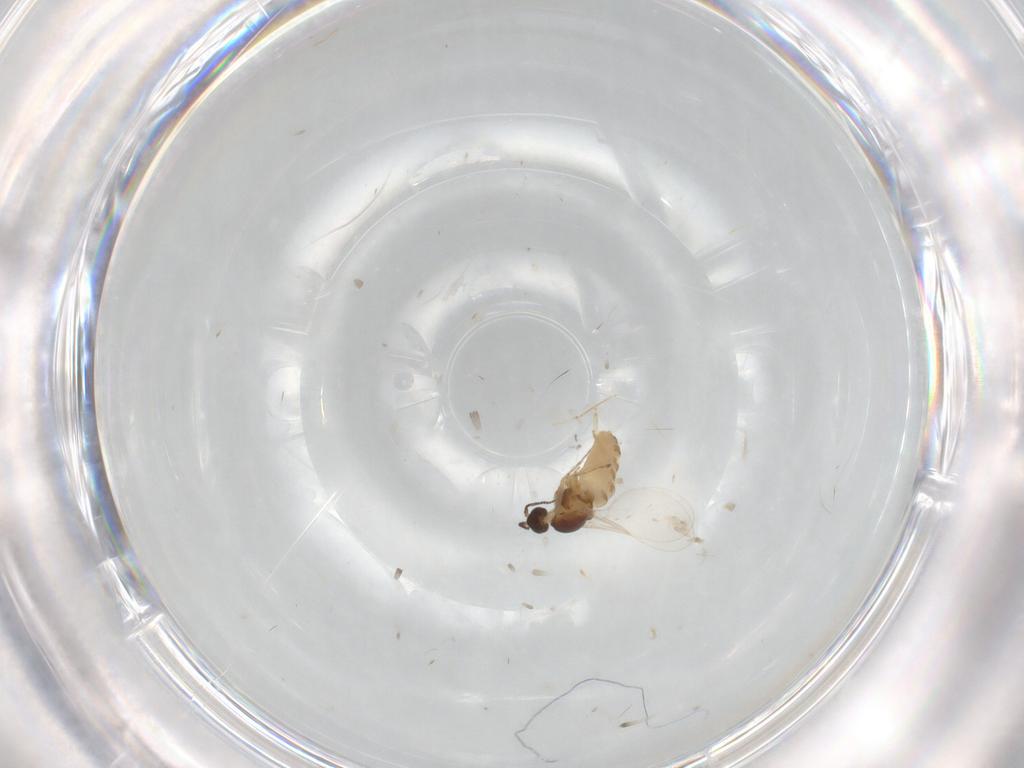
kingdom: Animalia
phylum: Arthropoda
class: Insecta
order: Diptera
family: Cecidomyiidae
